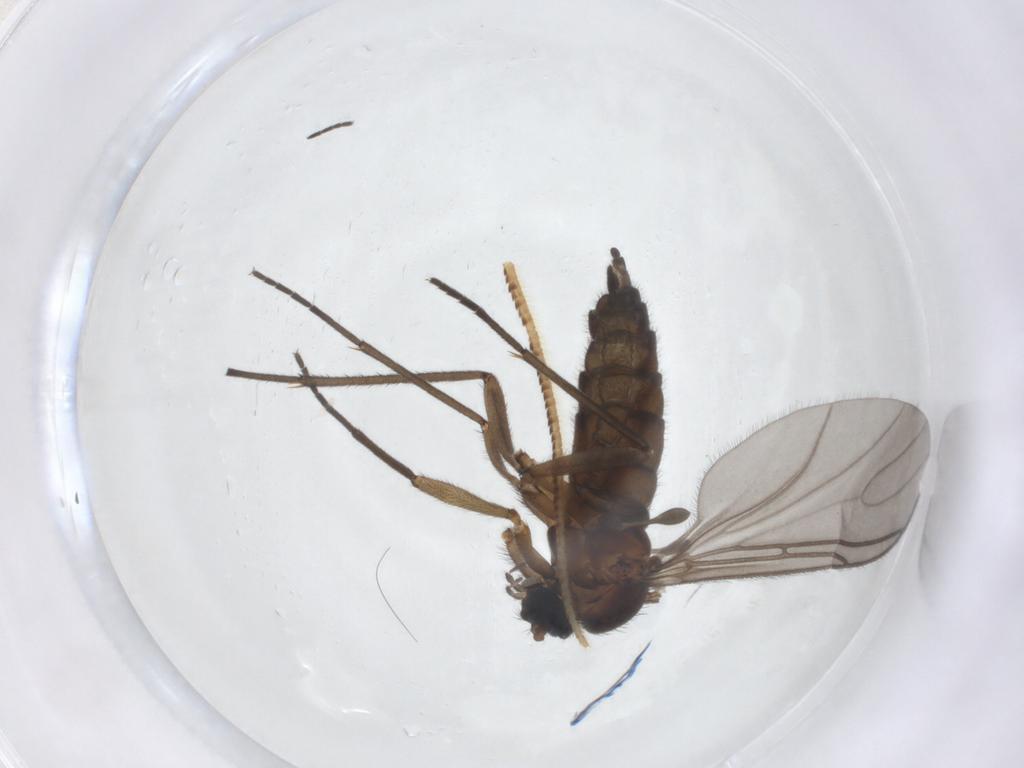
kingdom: Animalia
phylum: Arthropoda
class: Insecta
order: Diptera
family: Sciaridae
